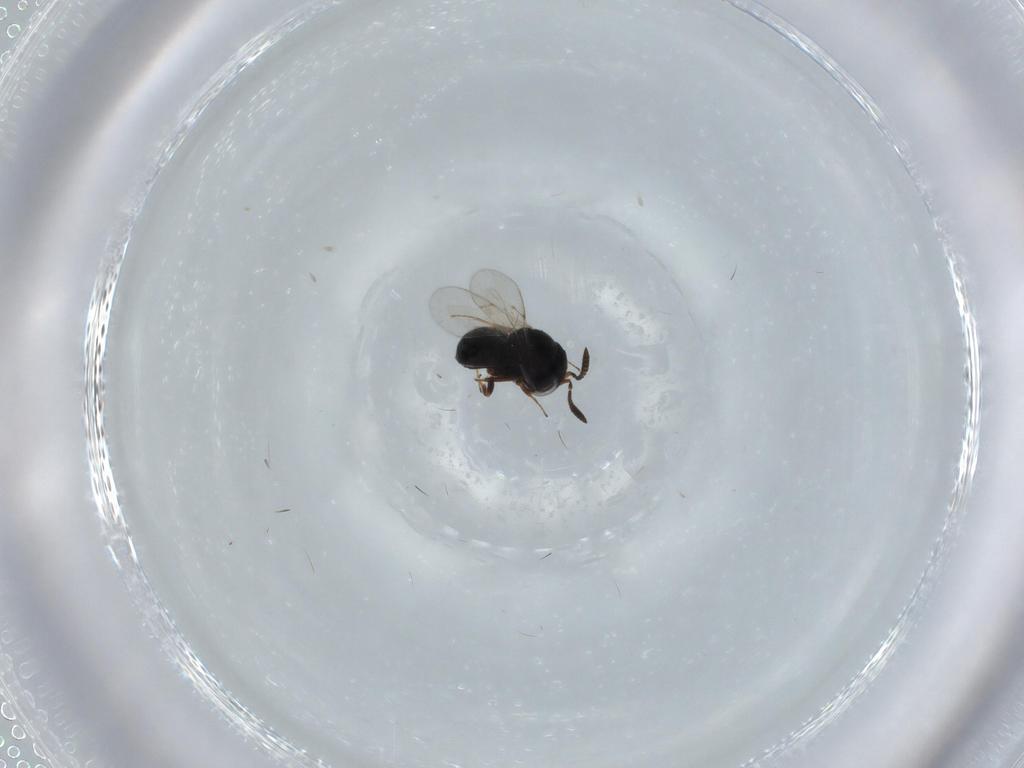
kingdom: Animalia
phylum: Arthropoda
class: Insecta
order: Hymenoptera
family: Scelionidae
